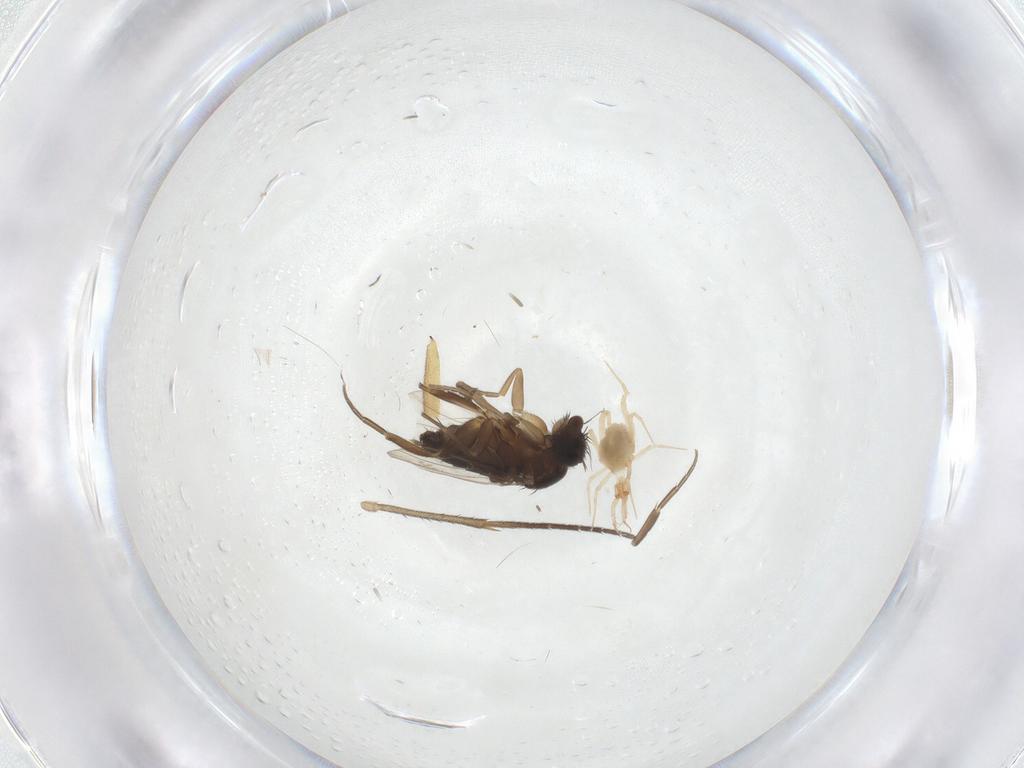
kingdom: Animalia
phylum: Arthropoda
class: Insecta
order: Diptera
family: Phoridae
